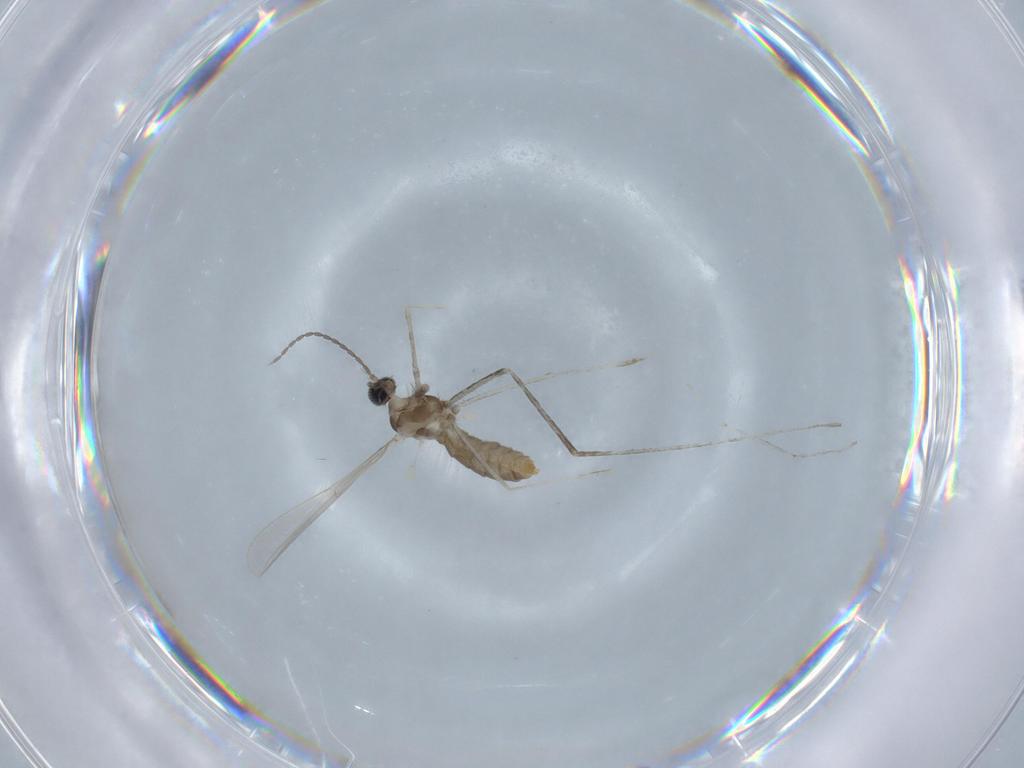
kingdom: Animalia
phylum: Arthropoda
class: Insecta
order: Diptera
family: Cecidomyiidae
